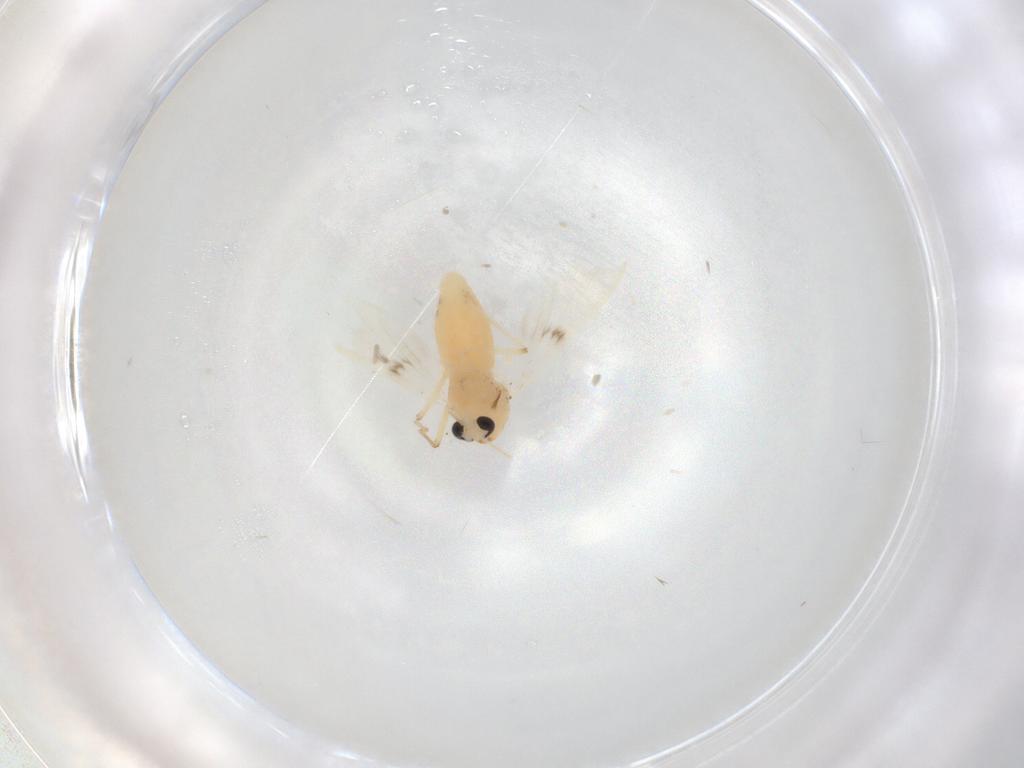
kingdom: Animalia
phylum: Arthropoda
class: Insecta
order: Diptera
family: Chironomidae
